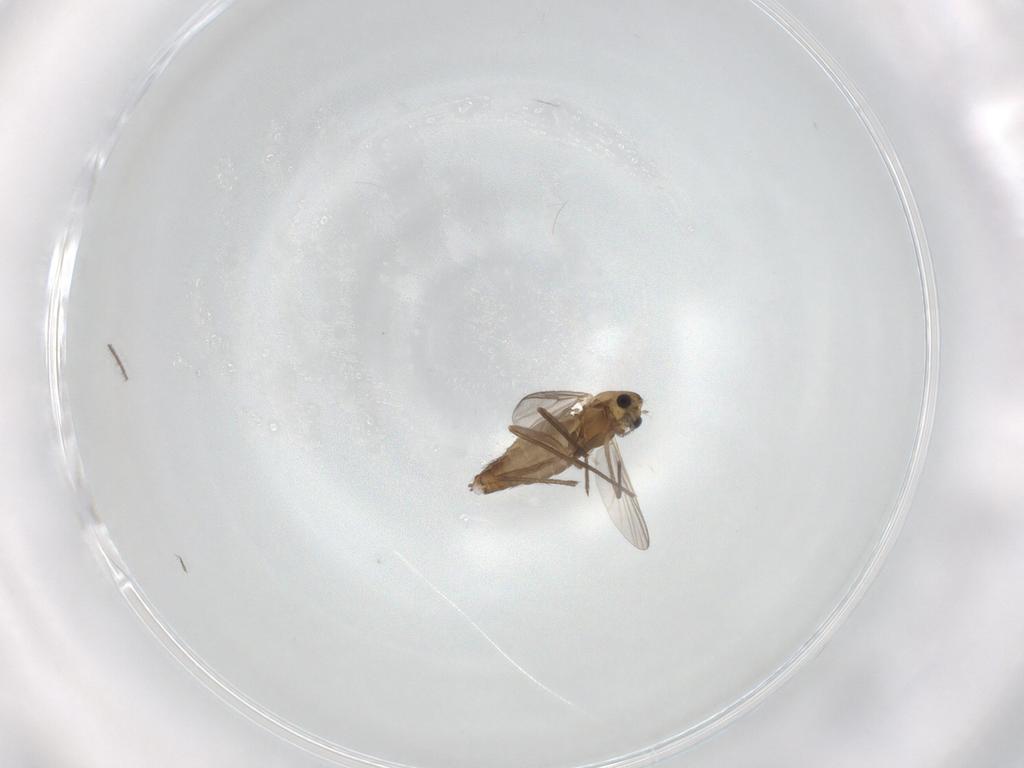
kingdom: Animalia
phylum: Arthropoda
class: Insecta
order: Diptera
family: Chironomidae
